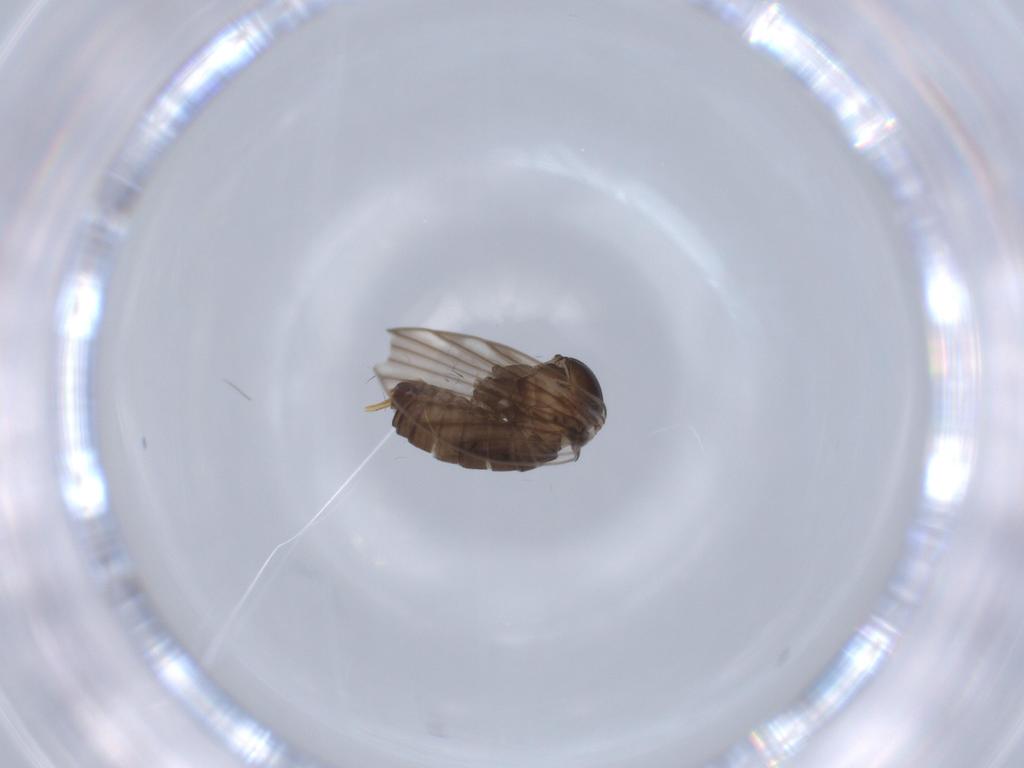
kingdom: Animalia
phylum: Arthropoda
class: Insecta
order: Diptera
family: Psychodidae
